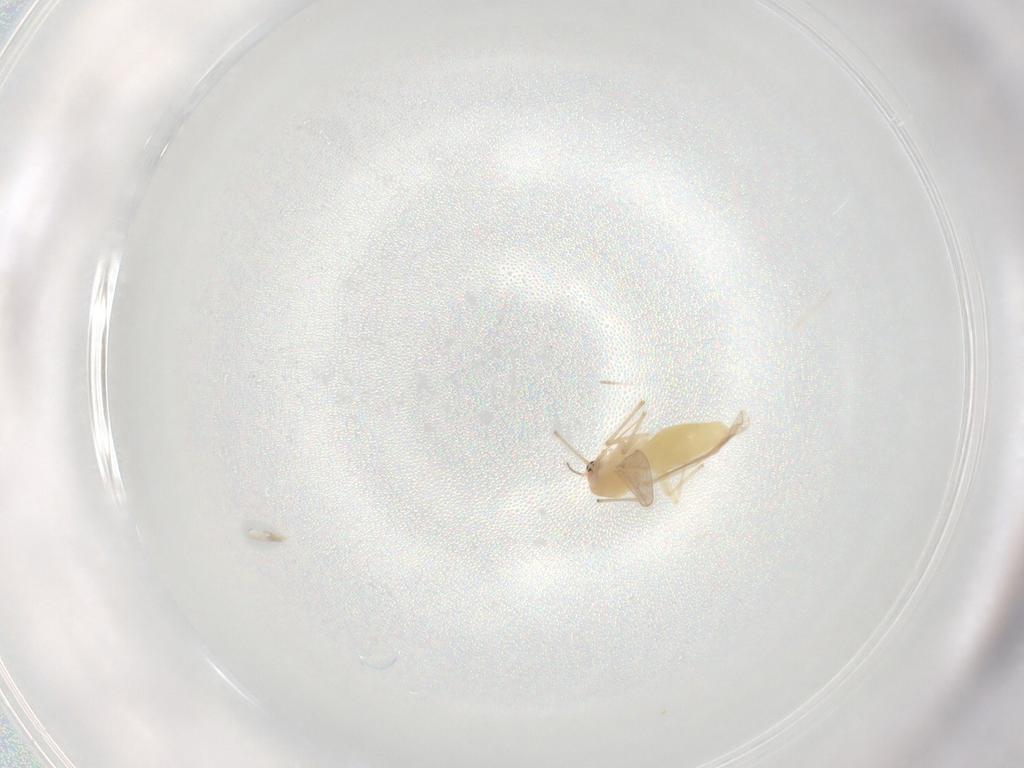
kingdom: Animalia
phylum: Arthropoda
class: Insecta
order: Diptera
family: Chironomidae
